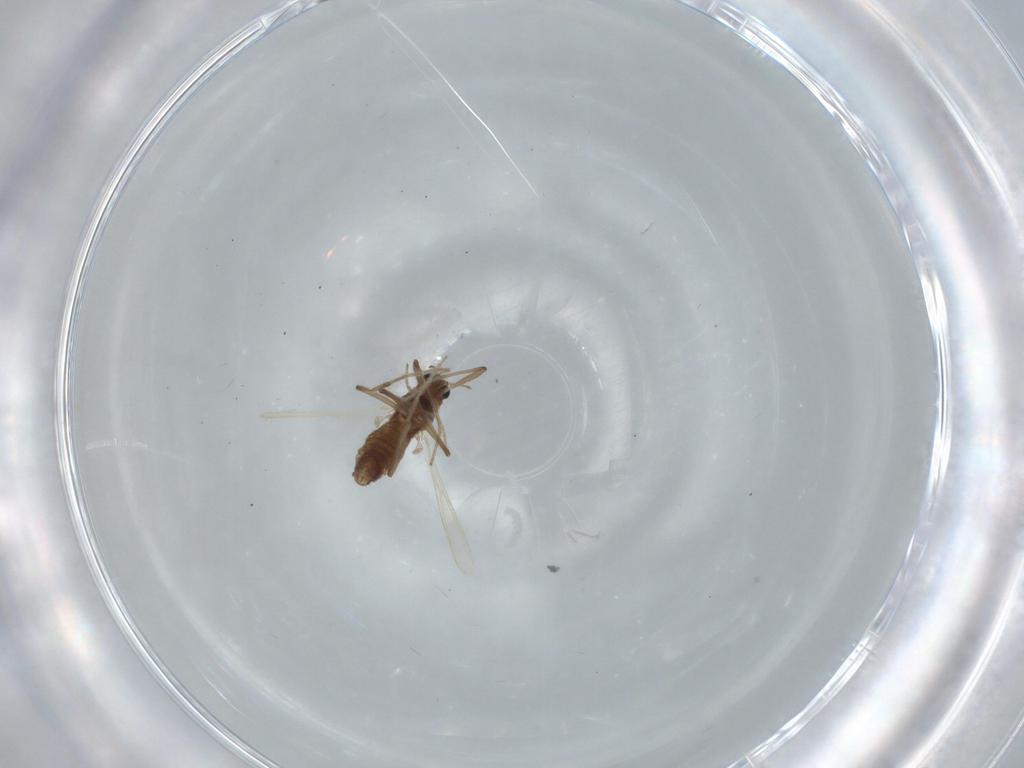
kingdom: Animalia
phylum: Arthropoda
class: Insecta
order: Diptera
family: Chironomidae
